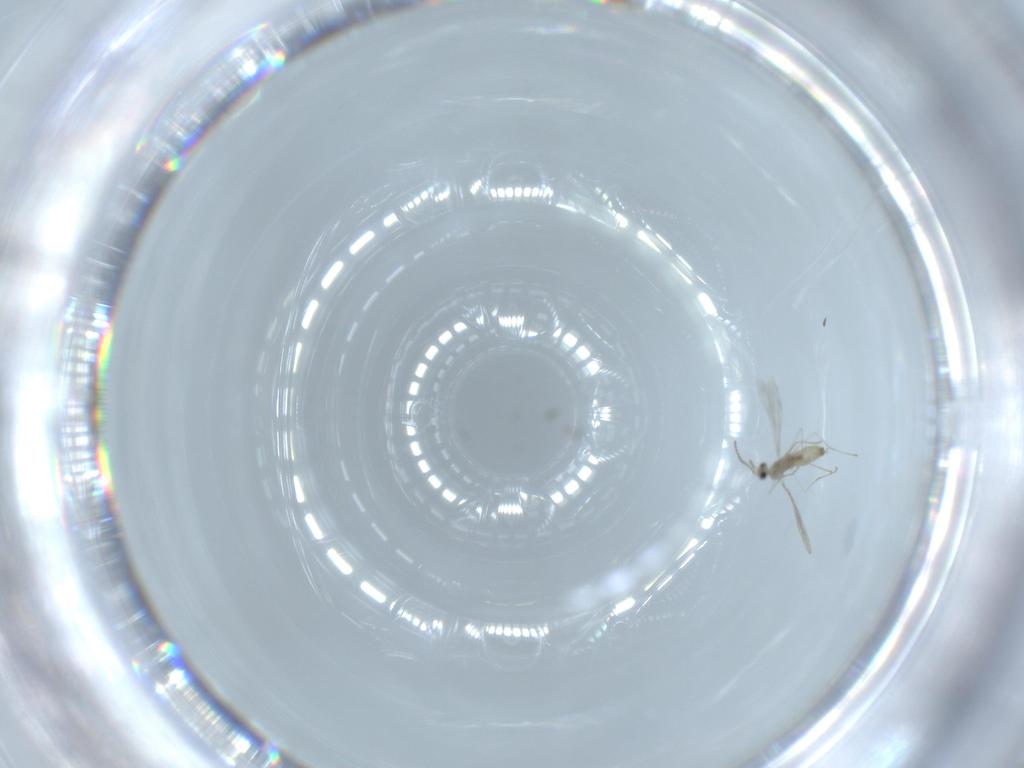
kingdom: Animalia
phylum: Arthropoda
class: Insecta
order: Diptera
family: Cecidomyiidae
